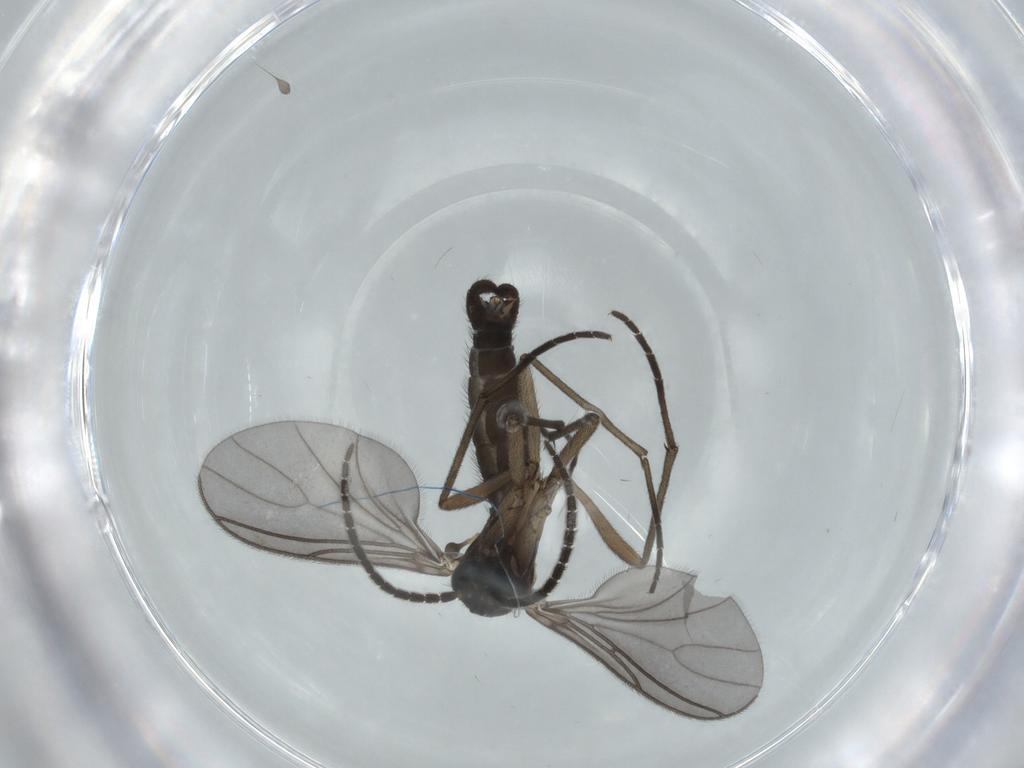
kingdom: Animalia
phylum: Arthropoda
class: Insecta
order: Diptera
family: Sciaridae
